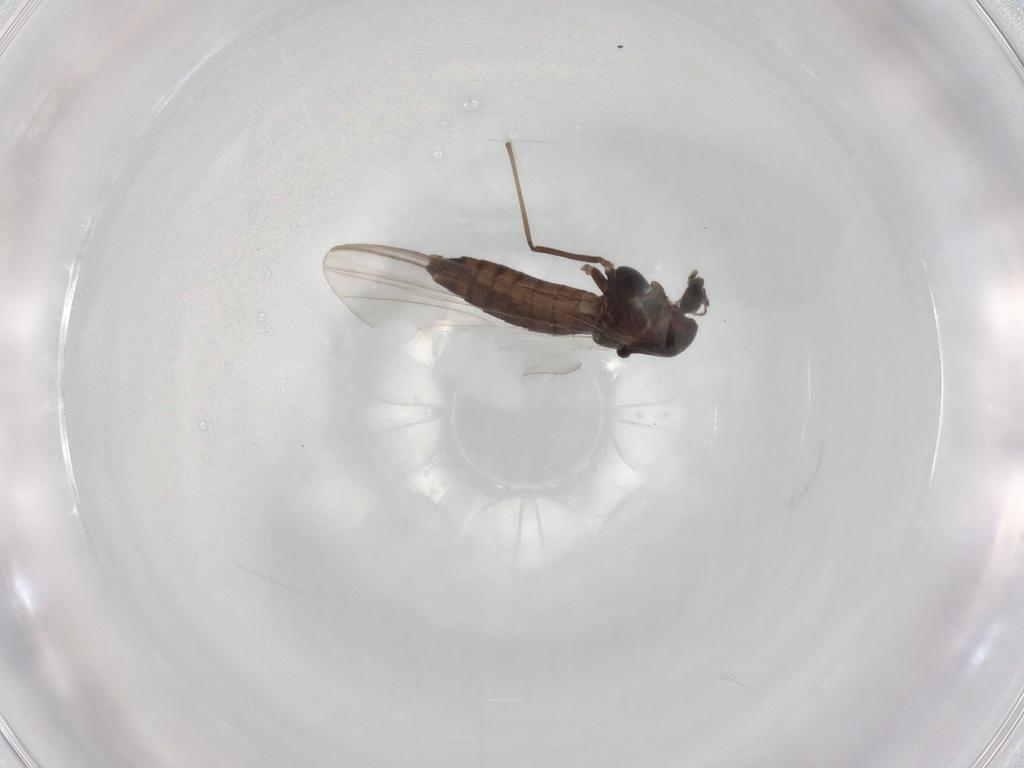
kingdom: Animalia
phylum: Arthropoda
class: Insecta
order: Diptera
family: Chironomidae
